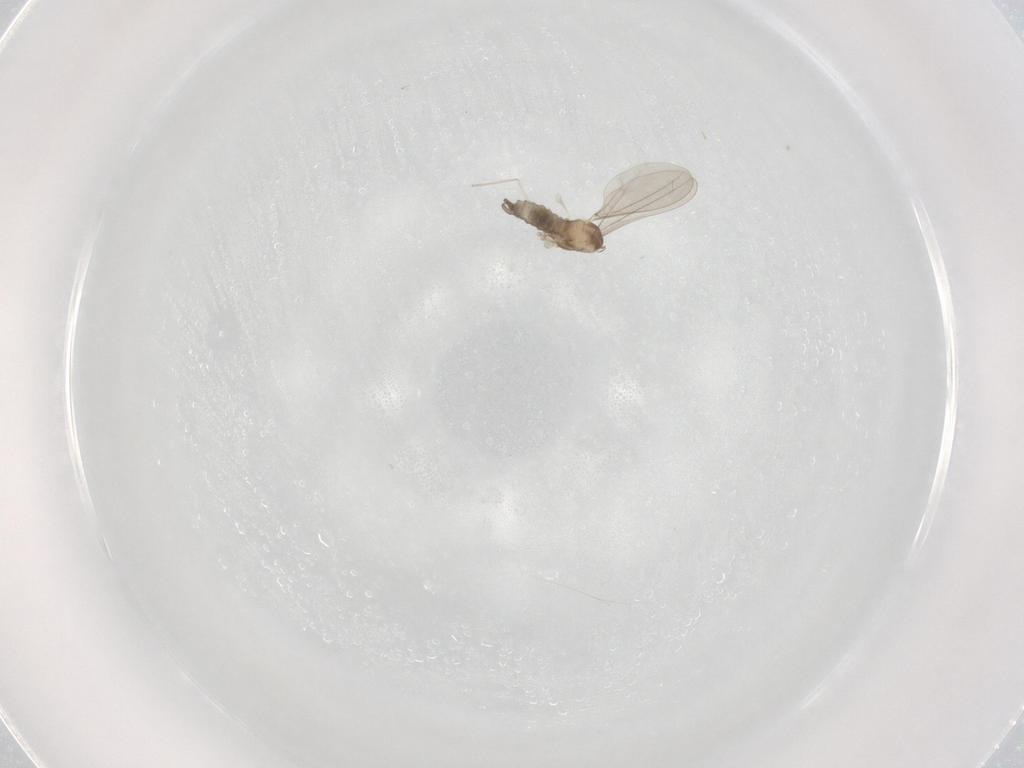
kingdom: Animalia
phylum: Arthropoda
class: Insecta
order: Diptera
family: Cecidomyiidae
